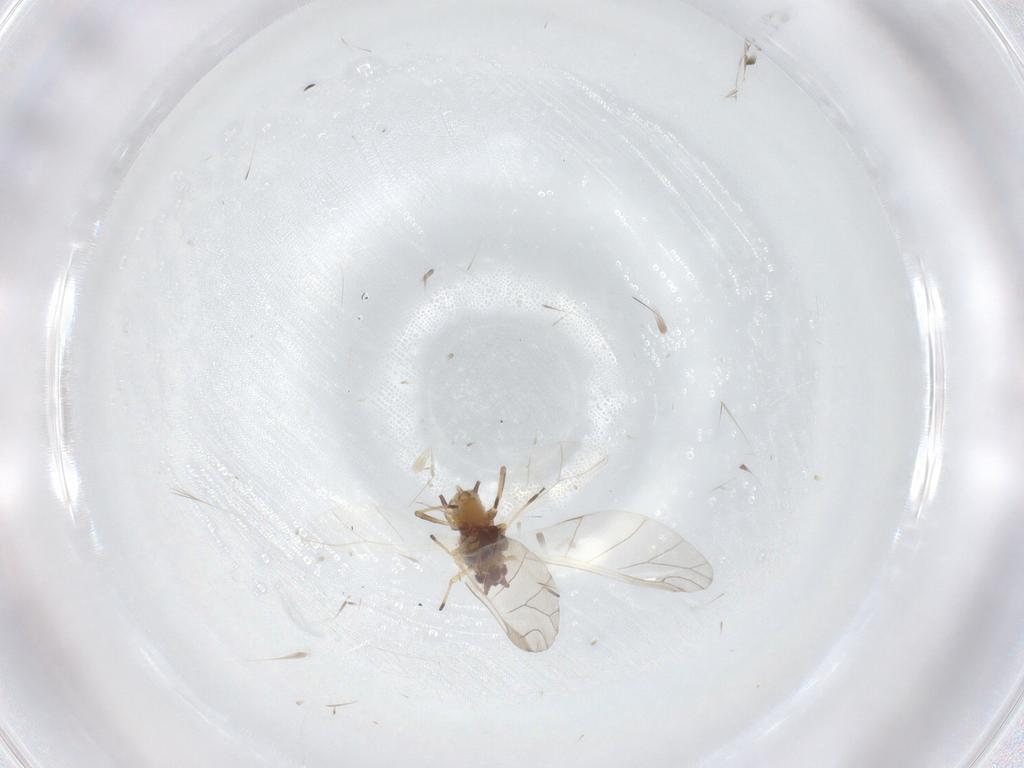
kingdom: Animalia
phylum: Arthropoda
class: Insecta
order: Hemiptera
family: Aphididae
